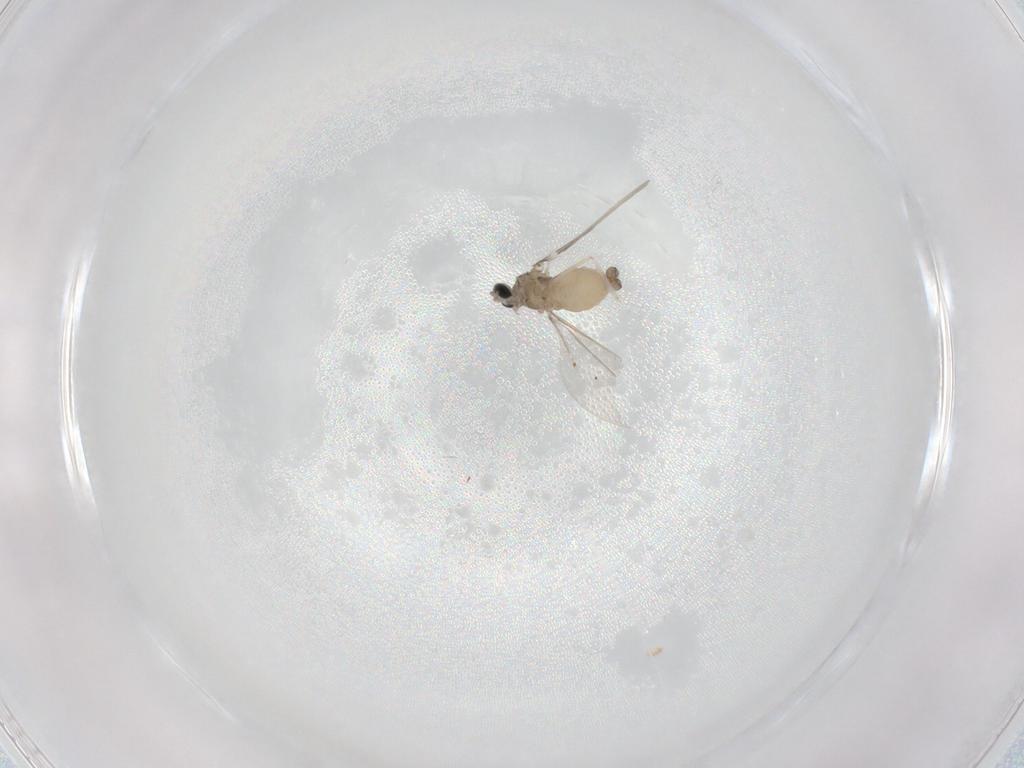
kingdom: Animalia
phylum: Arthropoda
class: Insecta
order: Diptera
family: Cecidomyiidae
